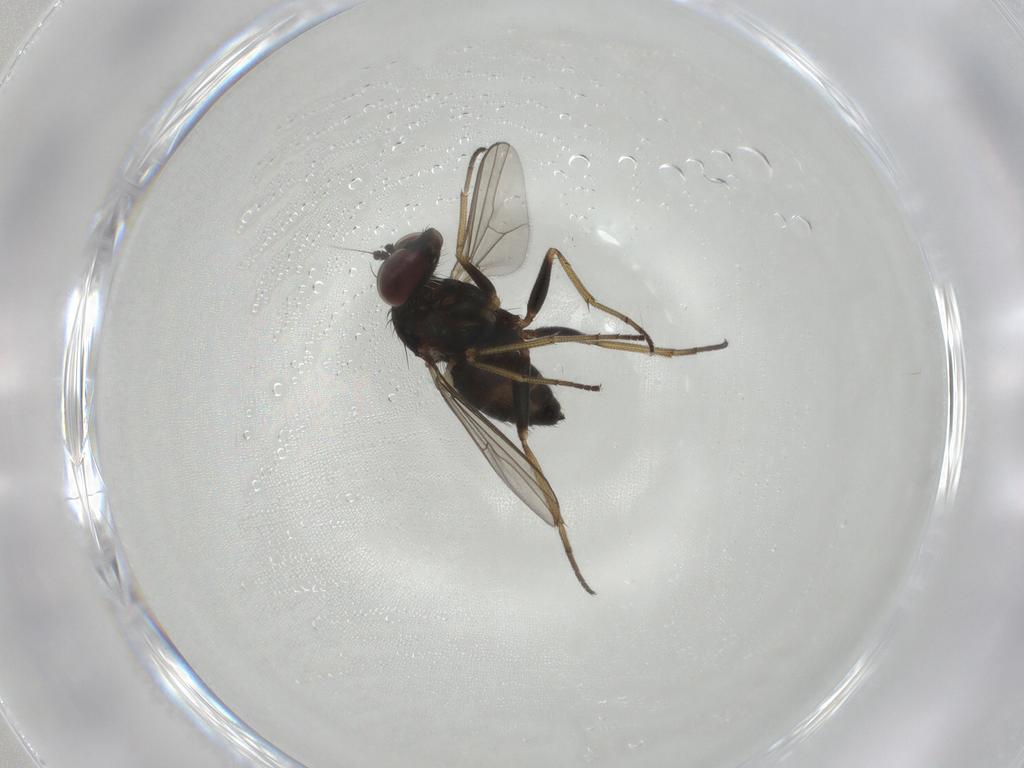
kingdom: Animalia
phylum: Arthropoda
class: Insecta
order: Diptera
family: Dolichopodidae
